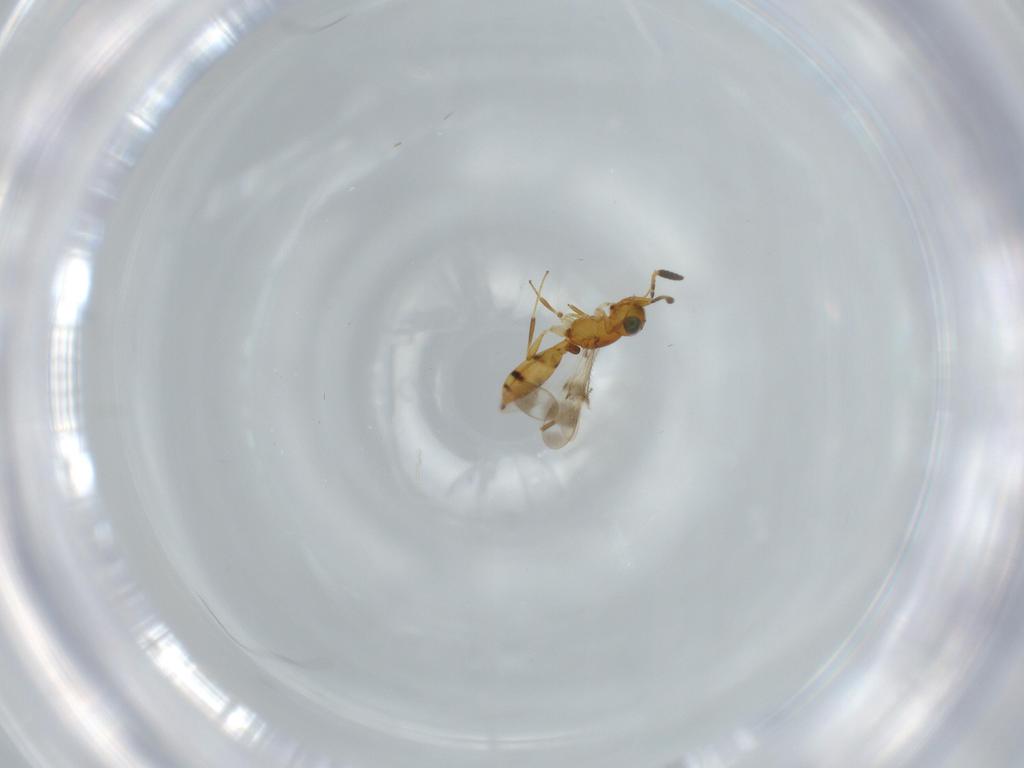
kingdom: Animalia
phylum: Arthropoda
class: Insecta
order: Hymenoptera
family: Scelionidae
